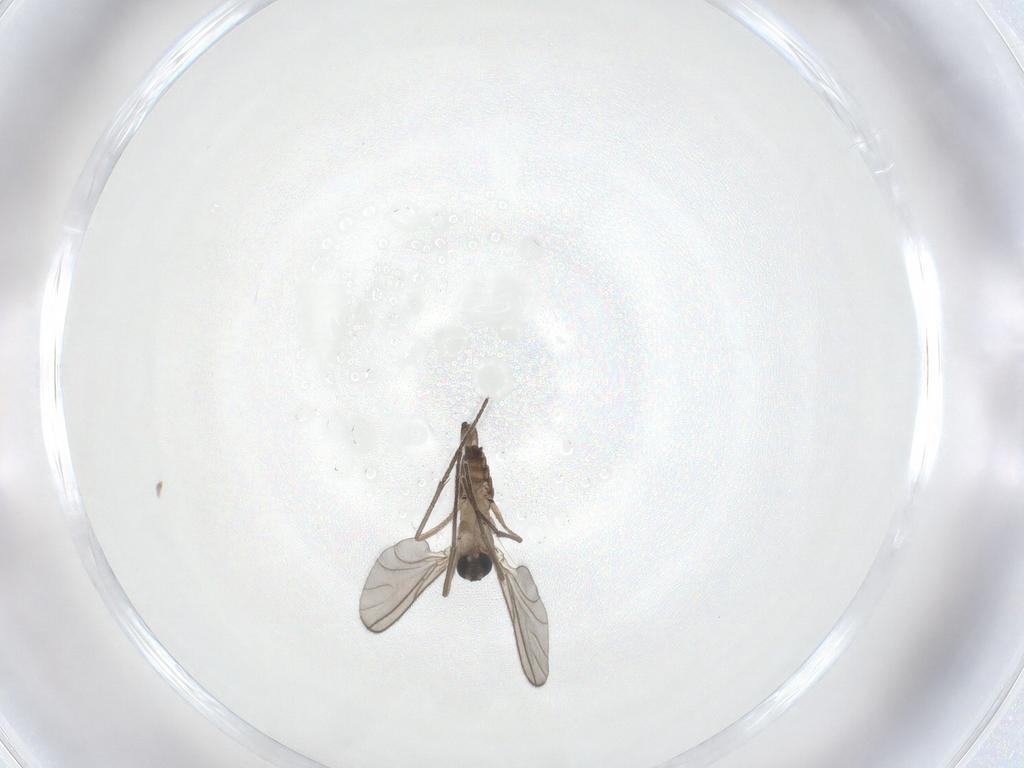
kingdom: Animalia
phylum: Arthropoda
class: Insecta
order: Diptera
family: Sciaridae
